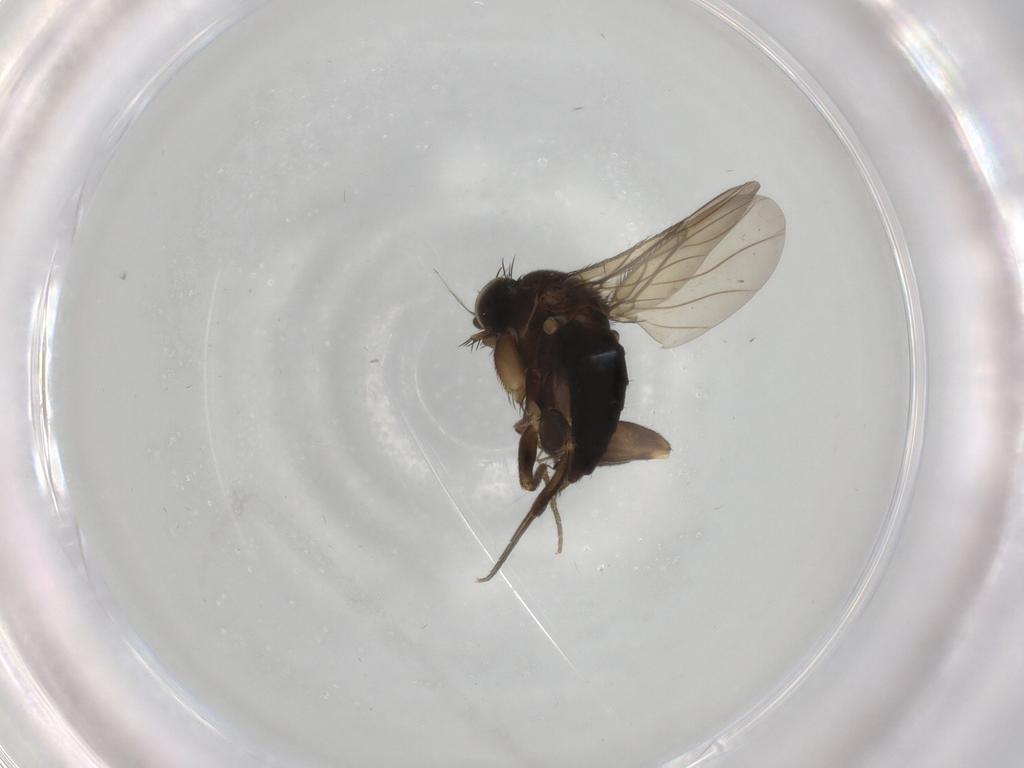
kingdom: Animalia
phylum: Arthropoda
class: Insecta
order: Diptera
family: Phoridae
